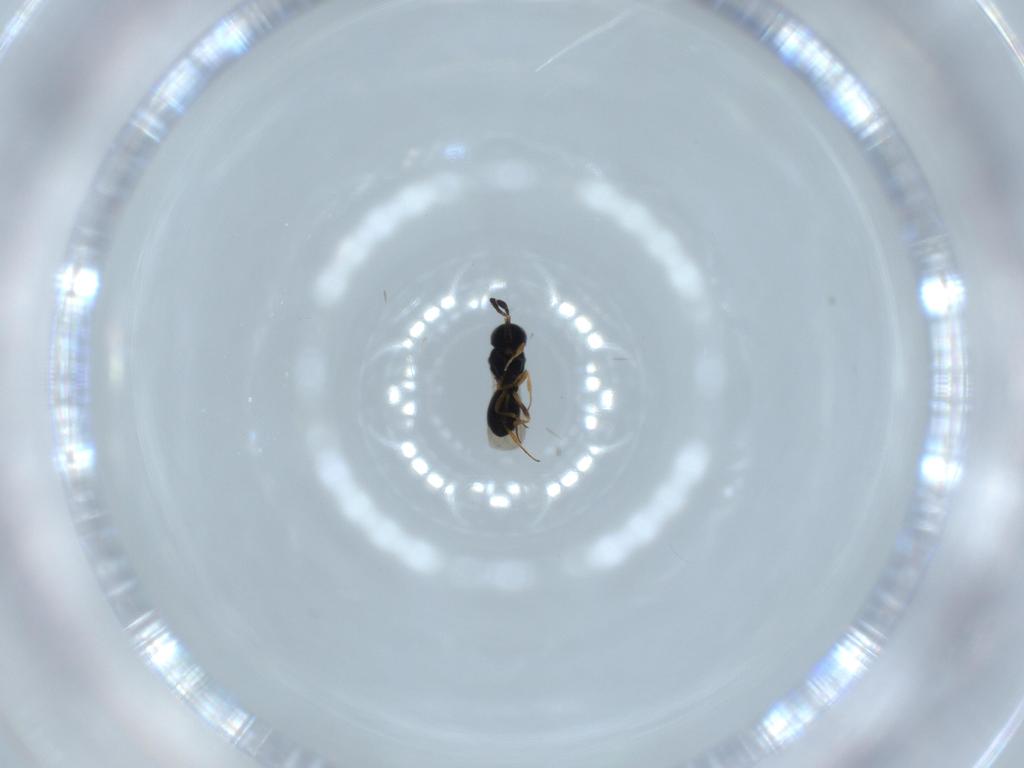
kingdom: Animalia
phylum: Arthropoda
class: Insecta
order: Hymenoptera
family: Scelionidae
